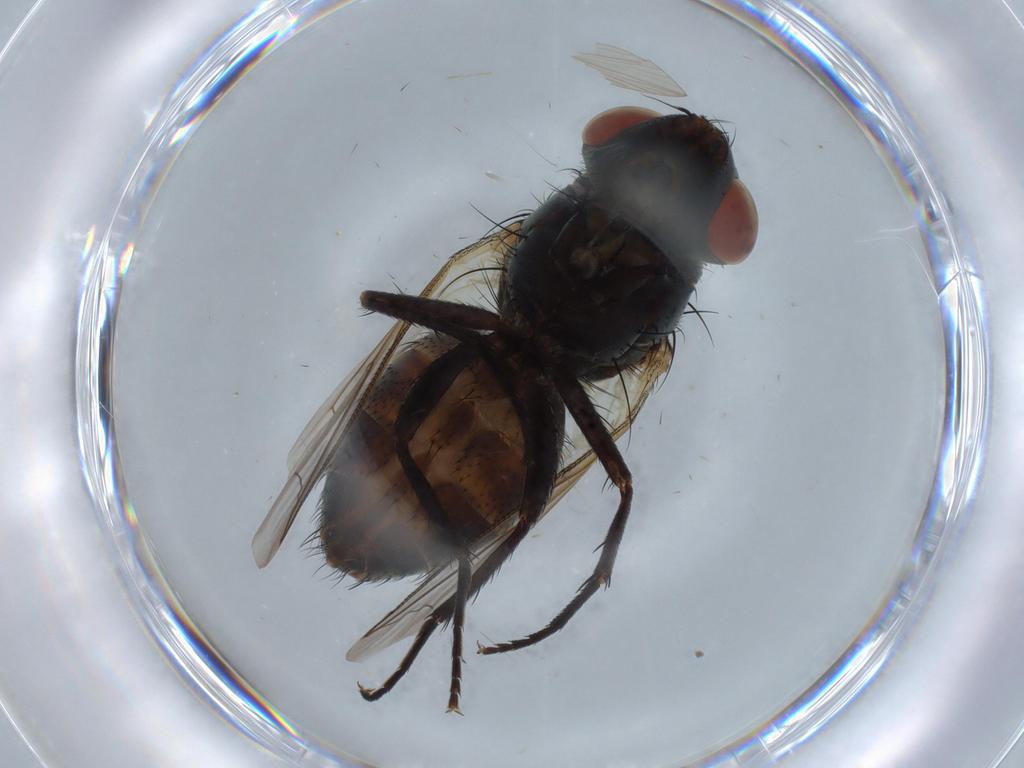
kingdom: Animalia
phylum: Arthropoda
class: Insecta
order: Diptera
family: Sarcophagidae
